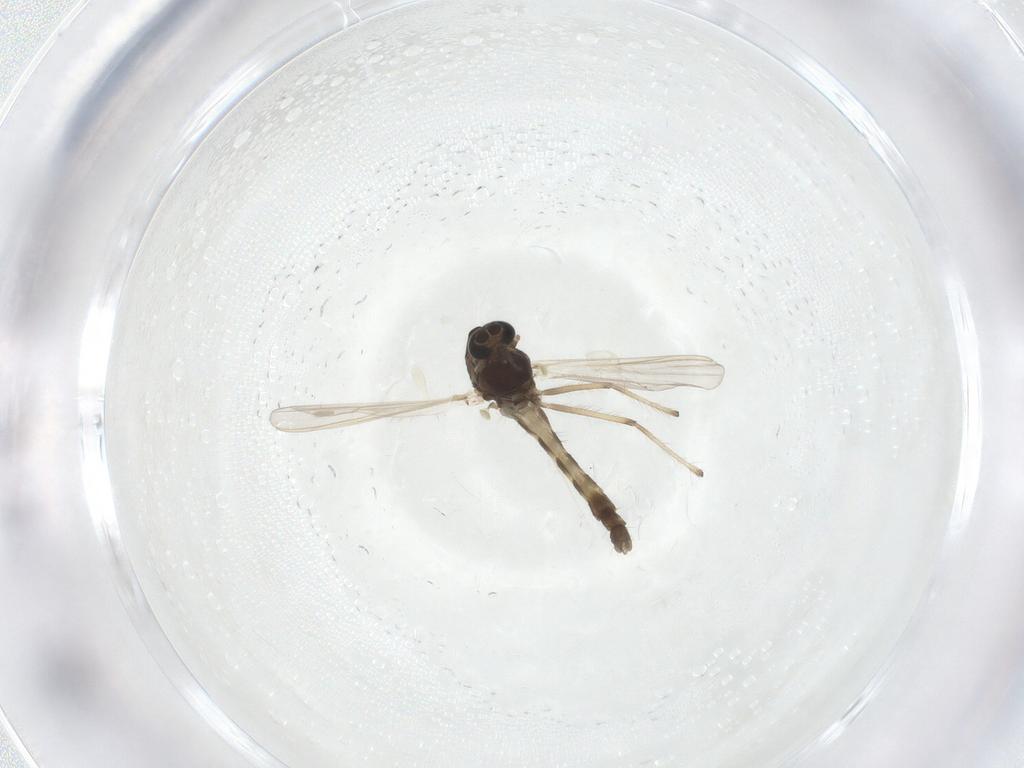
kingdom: Animalia
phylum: Arthropoda
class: Insecta
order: Diptera
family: Chironomidae
